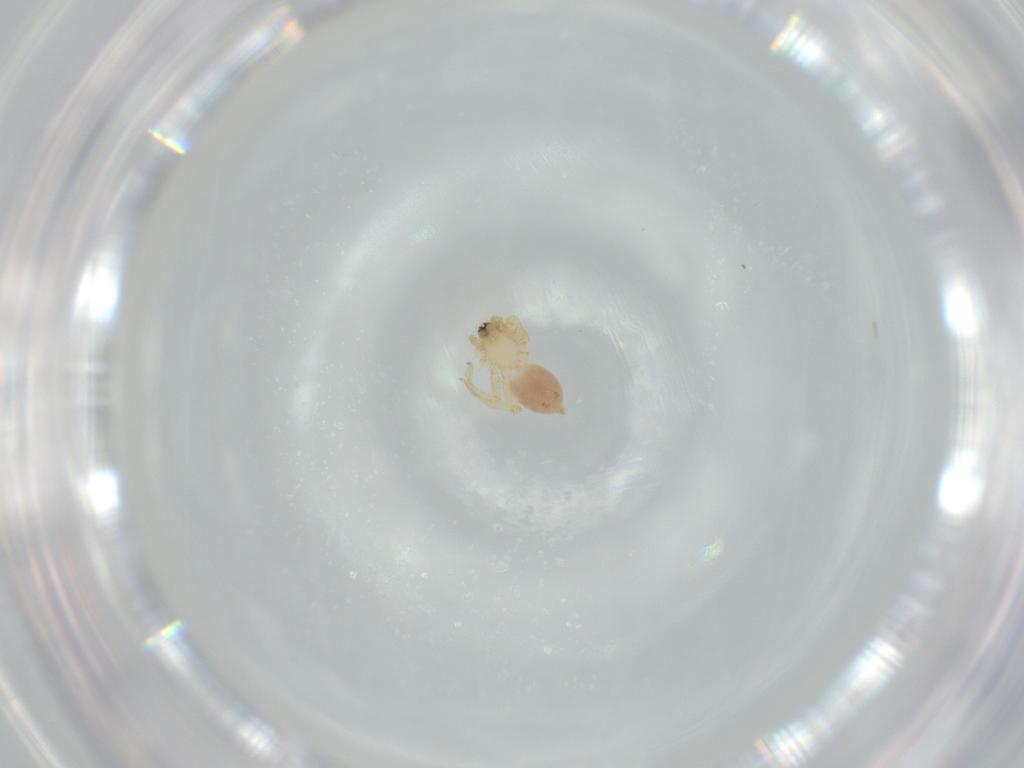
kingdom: Animalia
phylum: Arthropoda
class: Arachnida
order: Araneae
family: Oonopidae
